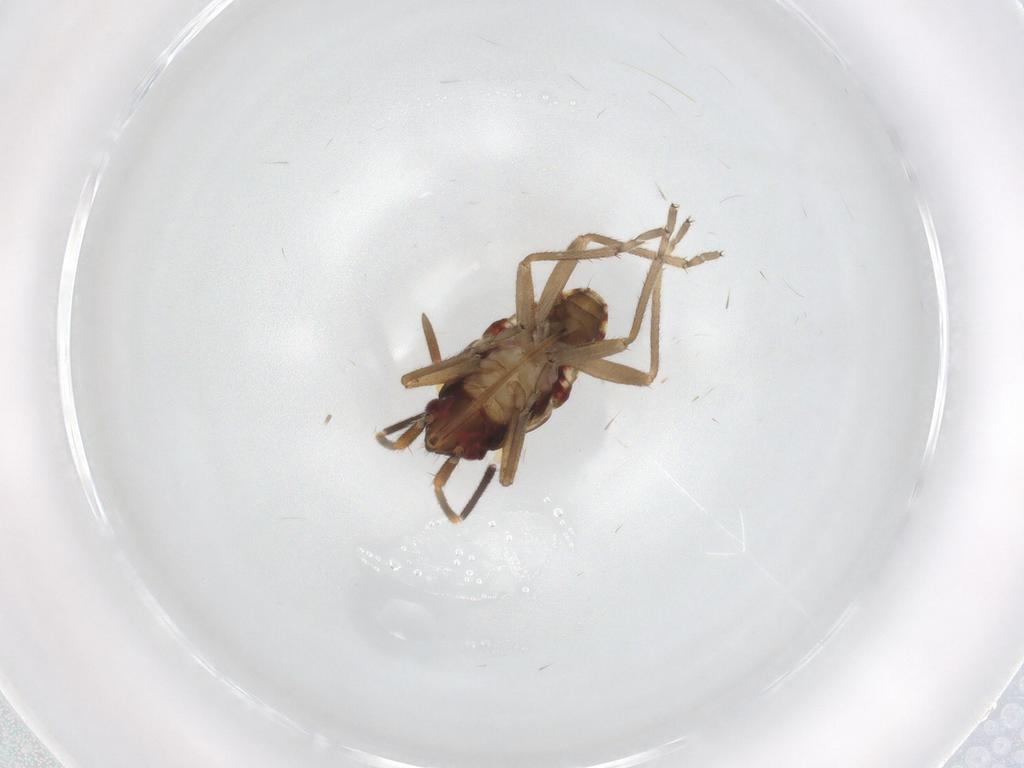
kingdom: Animalia
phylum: Arthropoda
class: Insecta
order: Hemiptera
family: Rhyparochromidae
